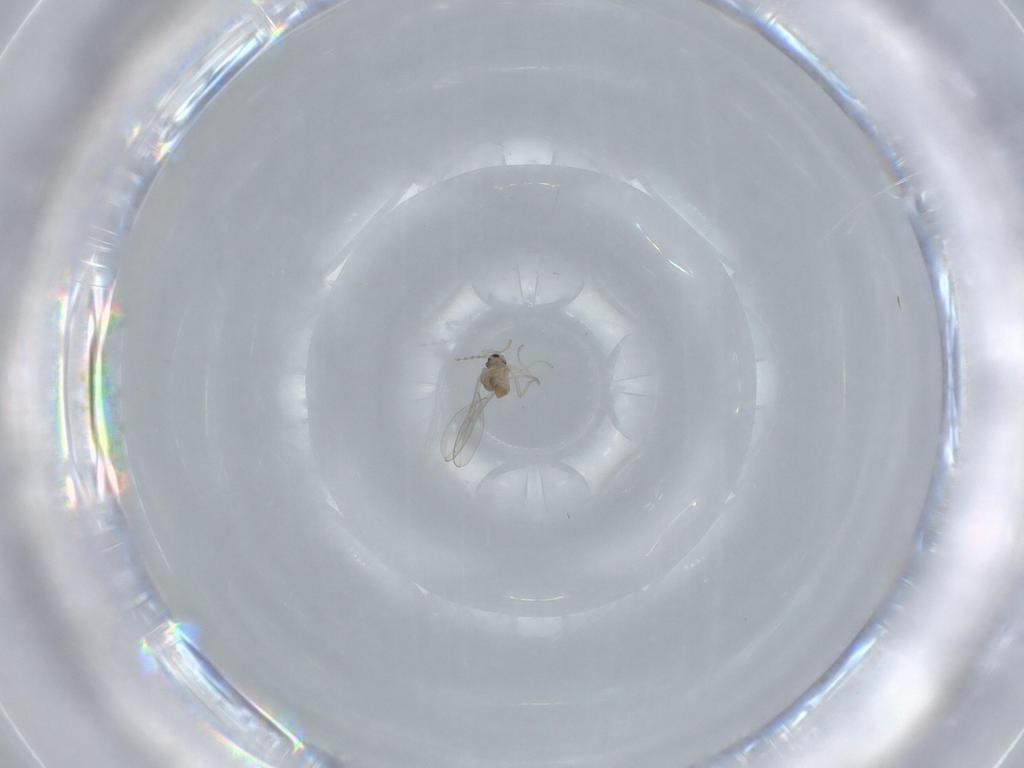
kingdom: Animalia
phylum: Arthropoda
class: Insecta
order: Diptera
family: Cecidomyiidae
